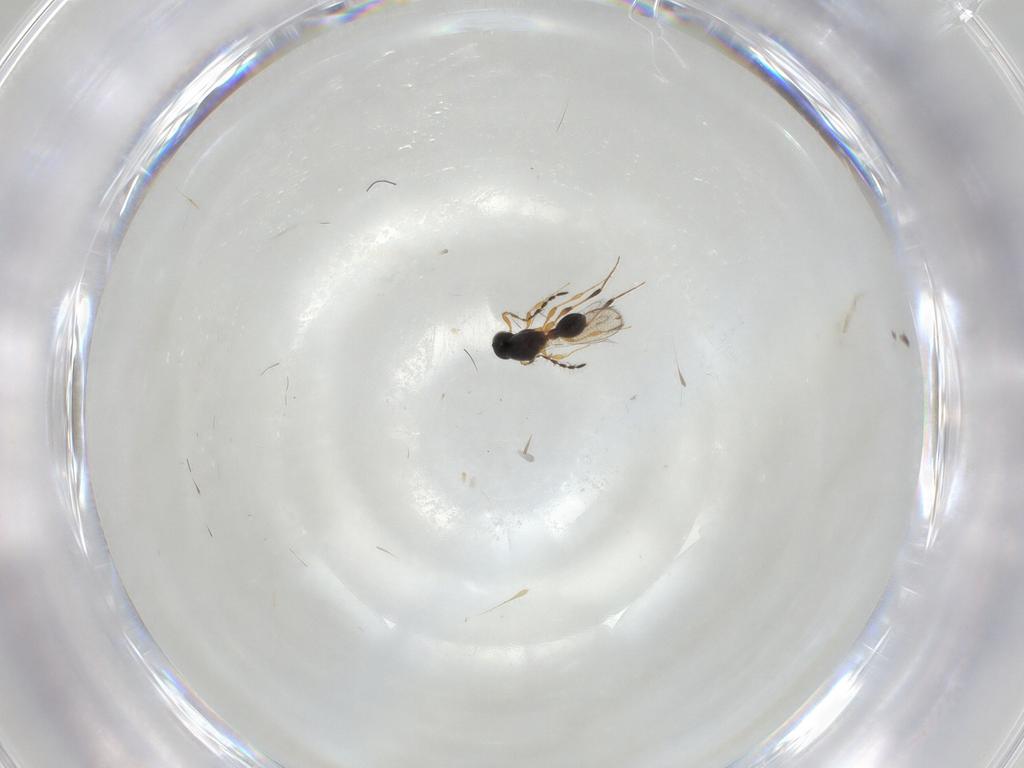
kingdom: Animalia
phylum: Arthropoda
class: Insecta
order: Hymenoptera
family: Platygastridae
